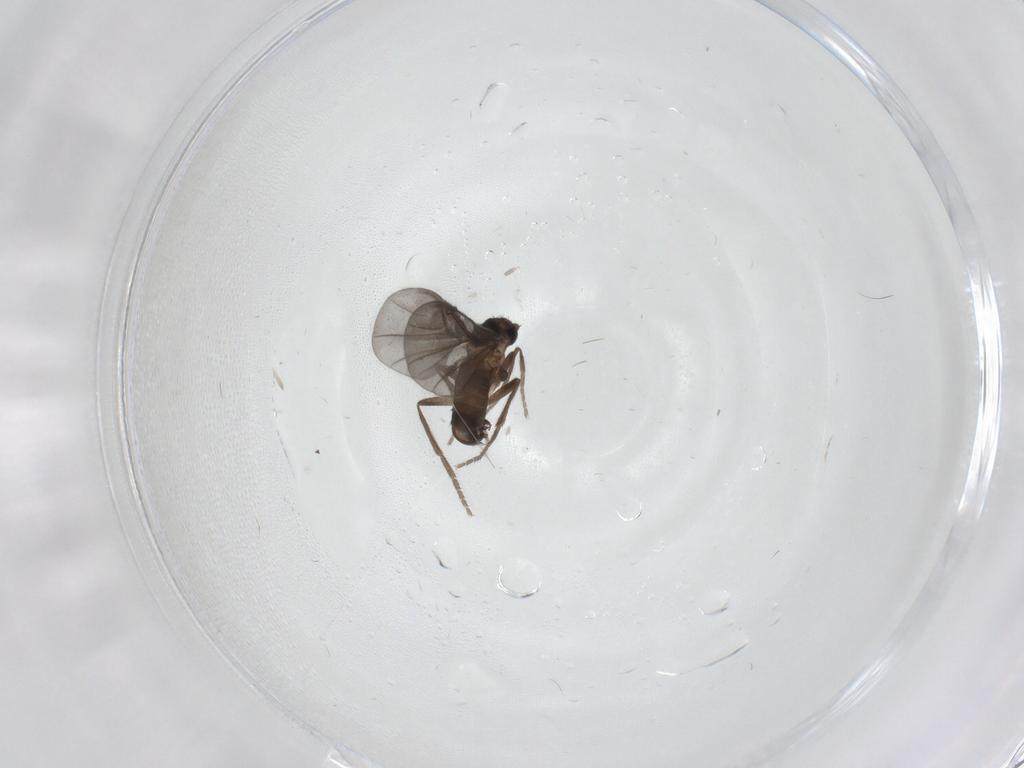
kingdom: Animalia
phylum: Arthropoda
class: Insecta
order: Diptera
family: Phoridae
